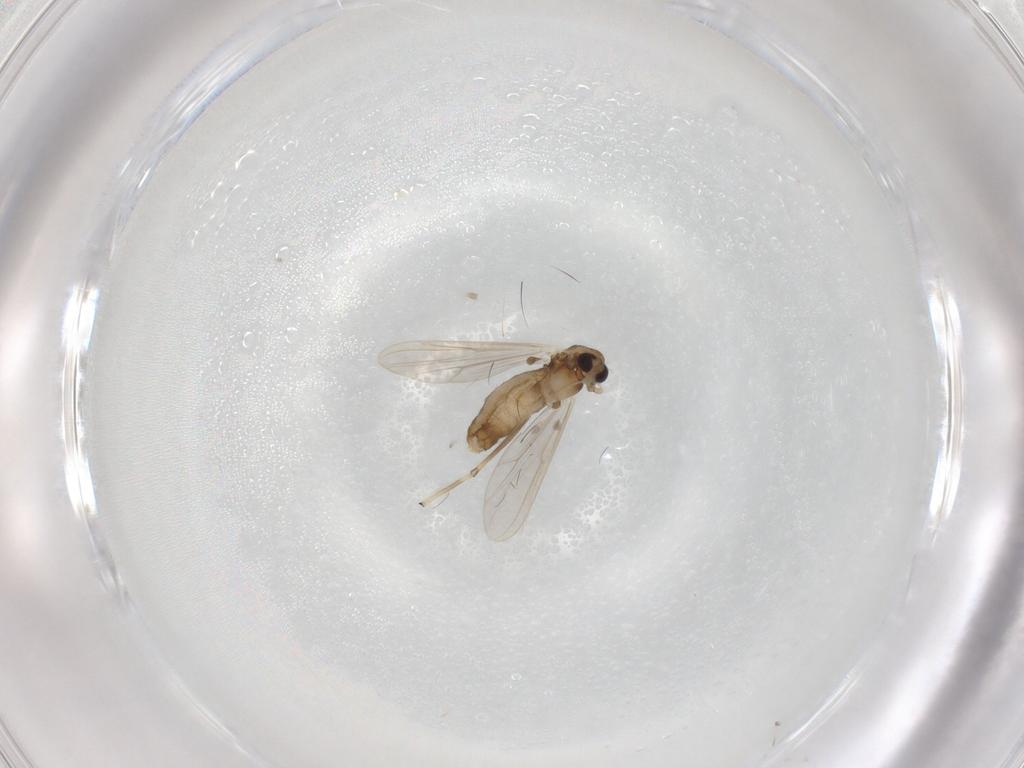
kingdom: Animalia
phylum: Arthropoda
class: Insecta
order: Diptera
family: Chironomidae
